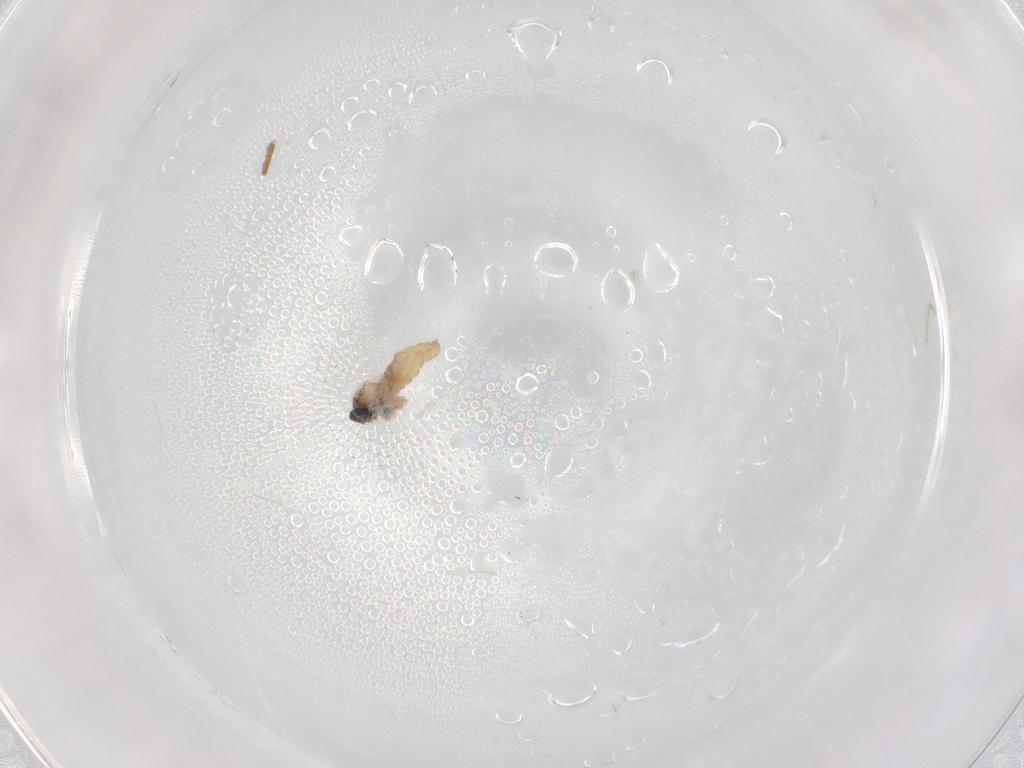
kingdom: Animalia
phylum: Arthropoda
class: Insecta
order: Diptera
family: Cecidomyiidae
